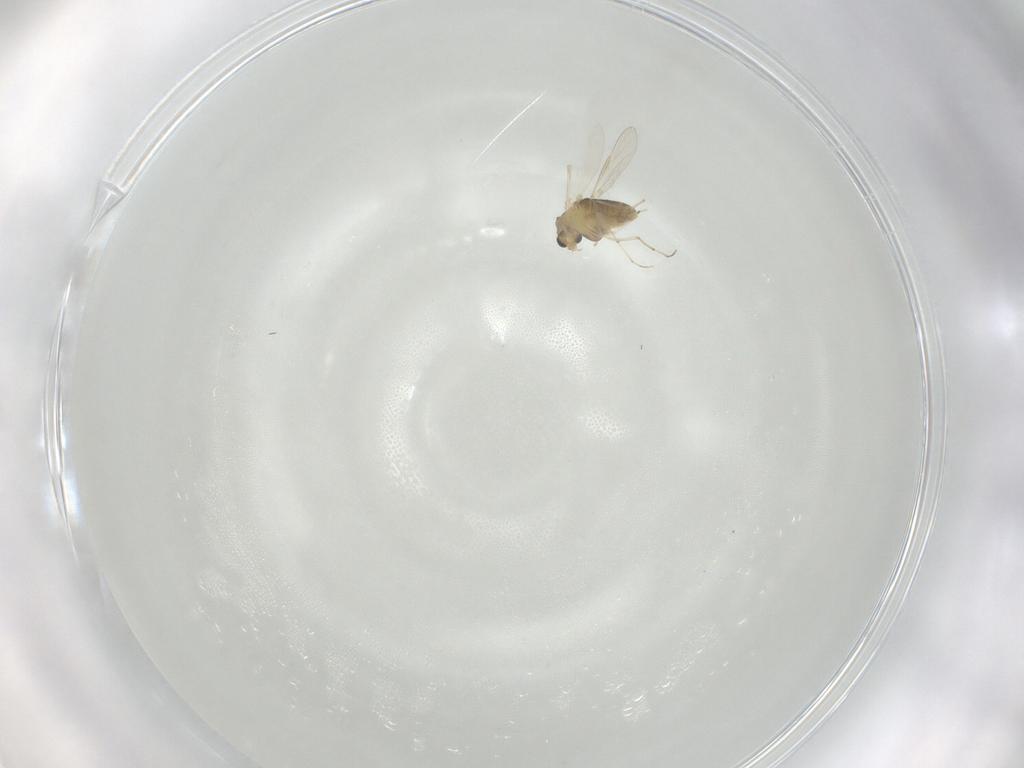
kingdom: Animalia
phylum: Arthropoda
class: Insecta
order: Diptera
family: Chironomidae
